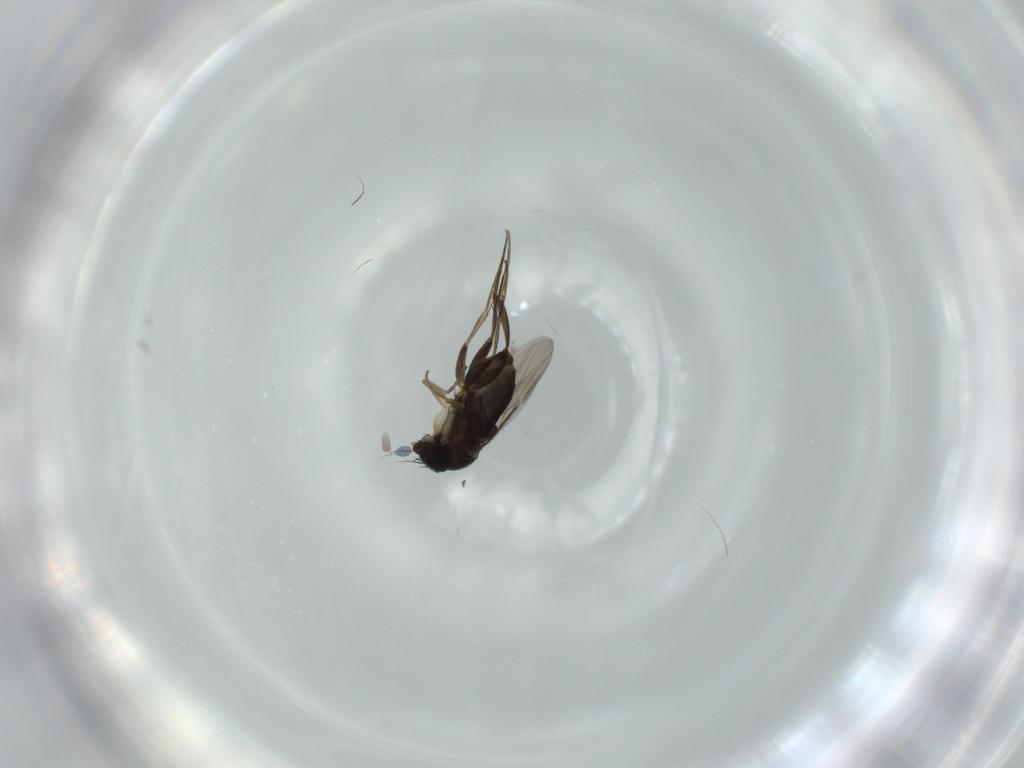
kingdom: Animalia
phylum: Arthropoda
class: Insecta
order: Diptera
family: Phoridae
